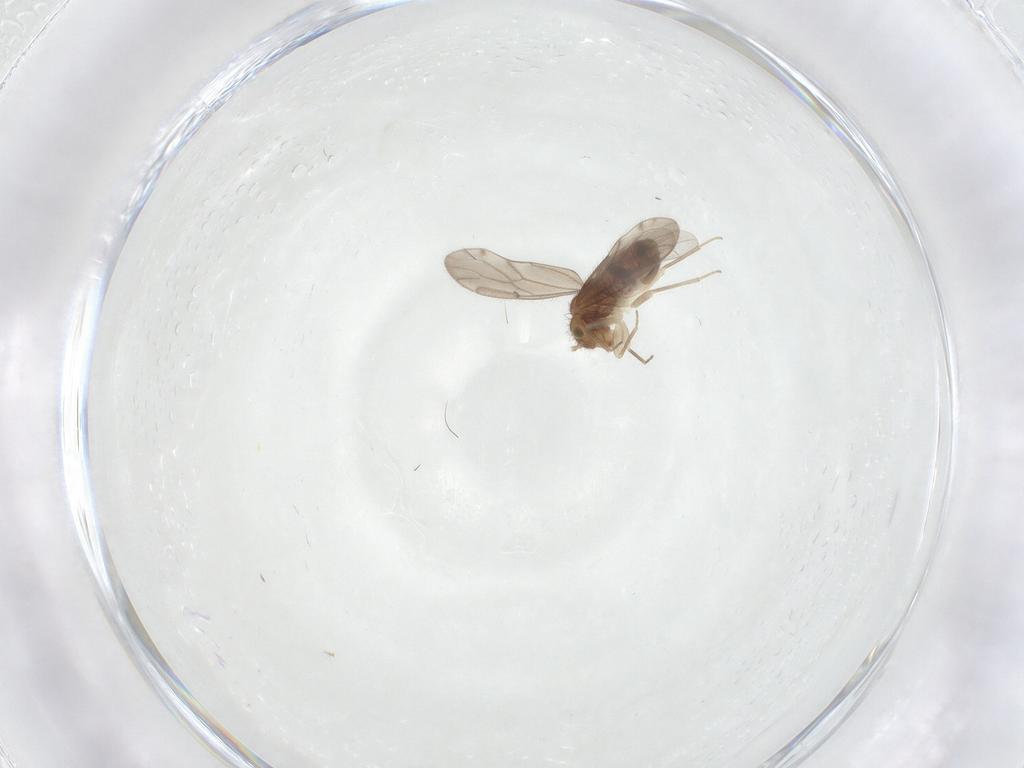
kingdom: Animalia
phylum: Arthropoda
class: Insecta
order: Psocodea
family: Ectopsocidae
